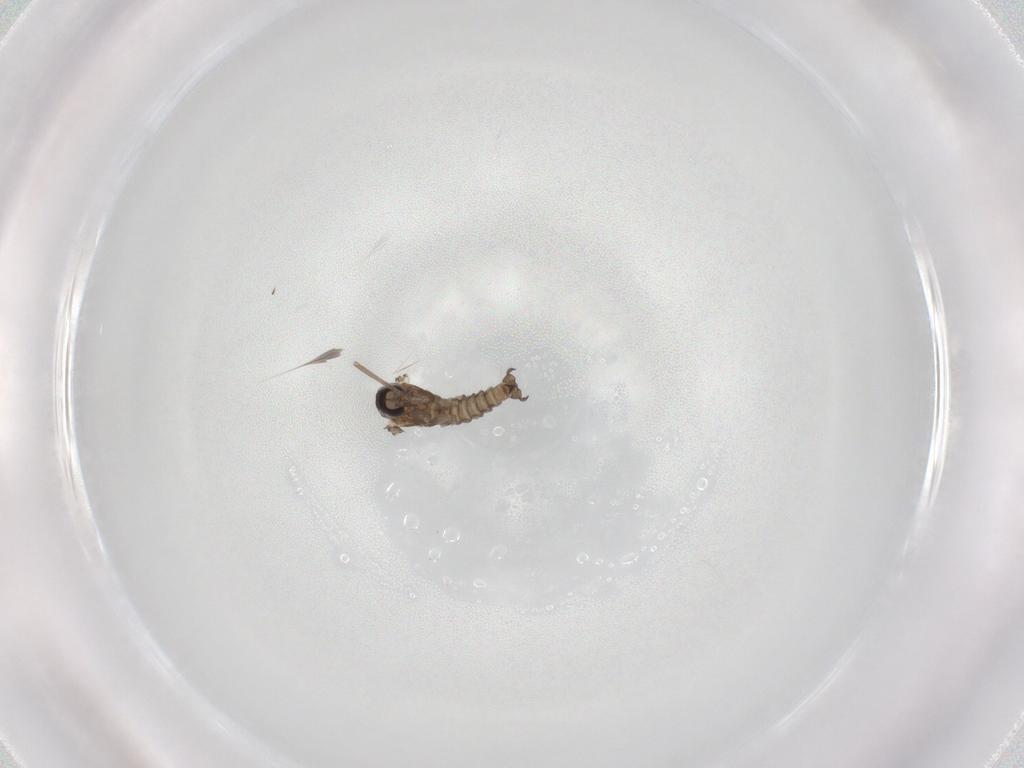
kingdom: Animalia
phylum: Arthropoda
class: Insecta
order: Diptera
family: Cecidomyiidae
